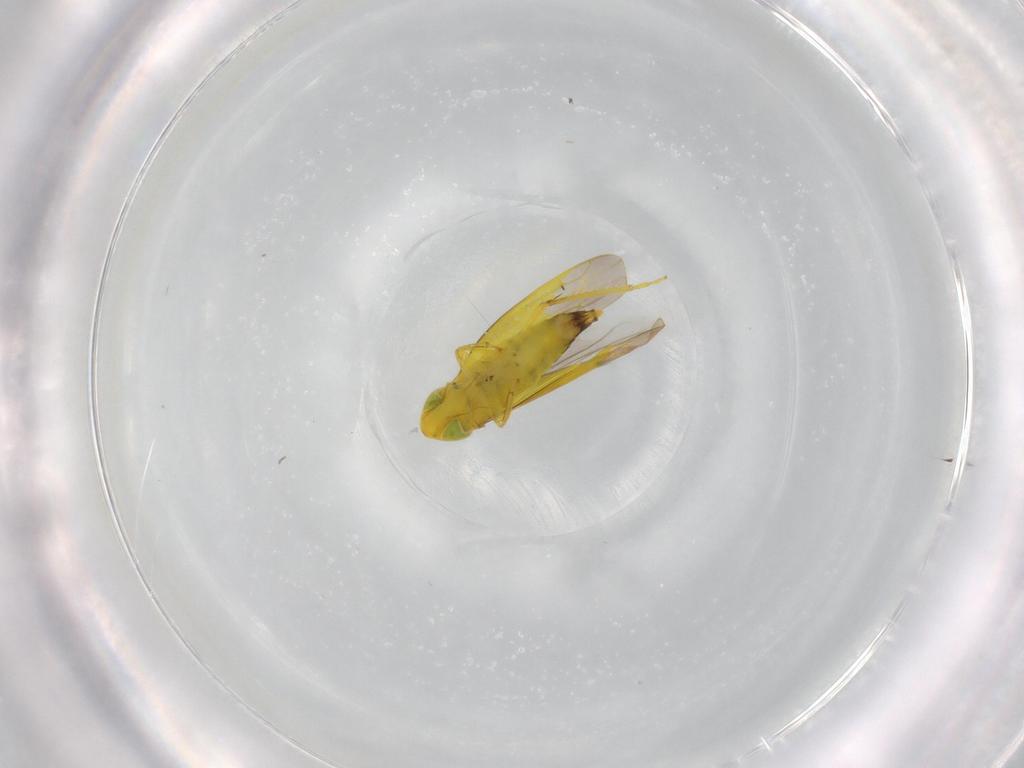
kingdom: Animalia
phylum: Arthropoda
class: Insecta
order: Hemiptera
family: Cicadellidae
